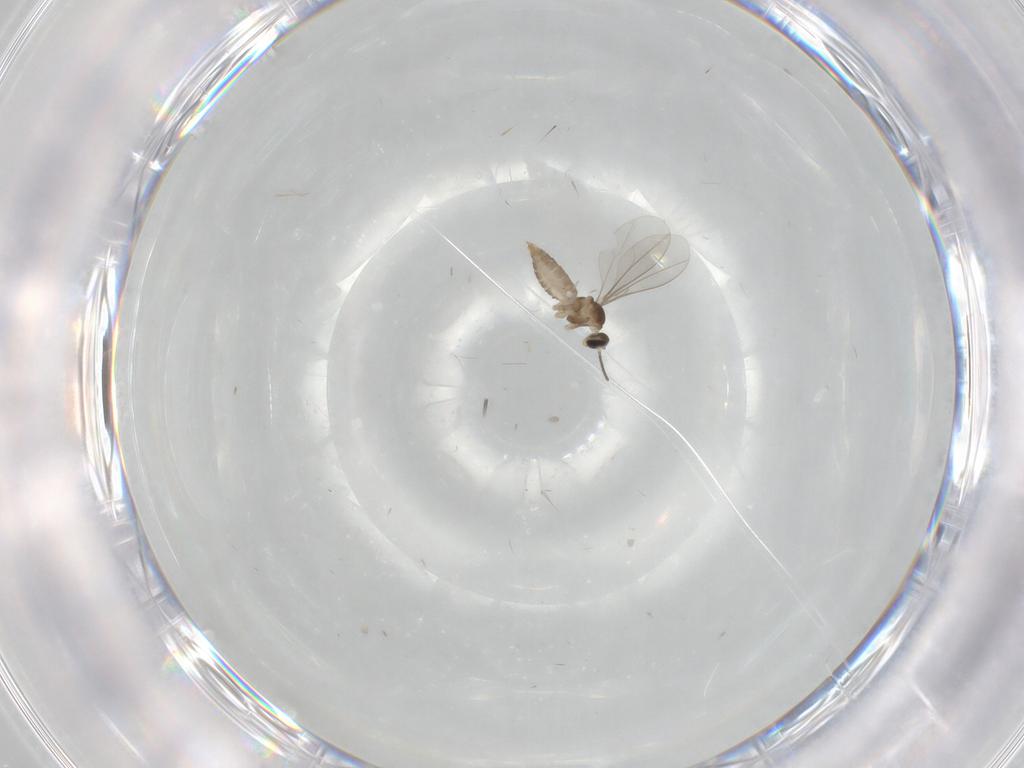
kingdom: Animalia
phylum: Arthropoda
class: Insecta
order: Diptera
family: Cecidomyiidae
